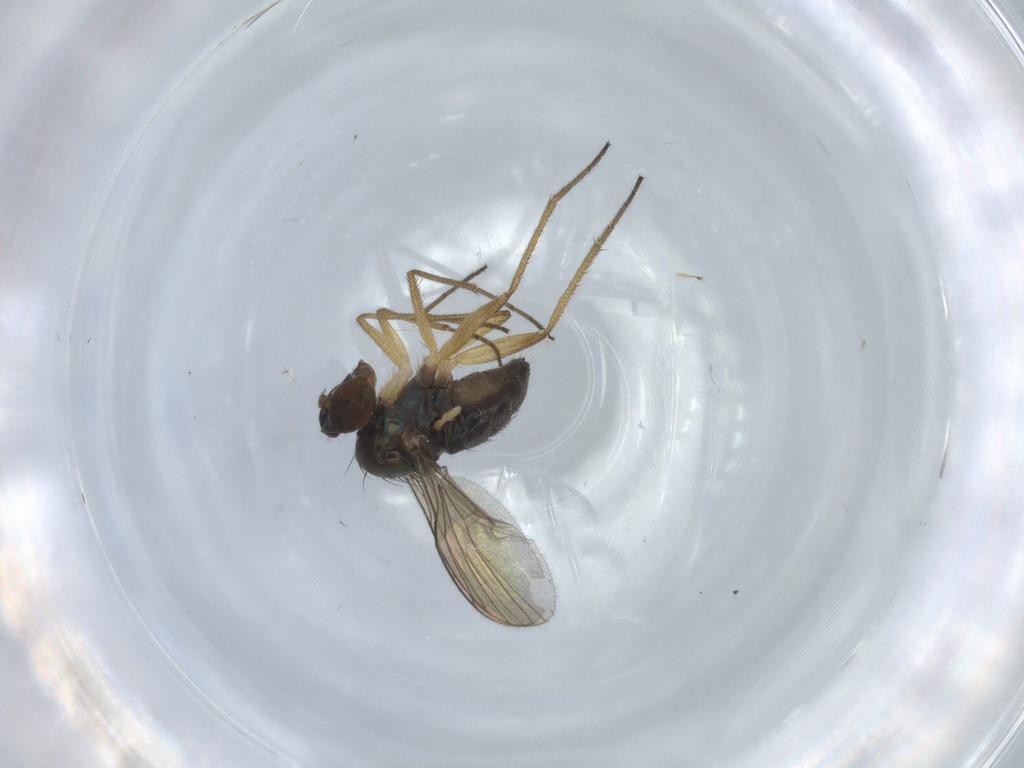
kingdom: Animalia
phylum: Arthropoda
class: Insecta
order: Diptera
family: Dolichopodidae
